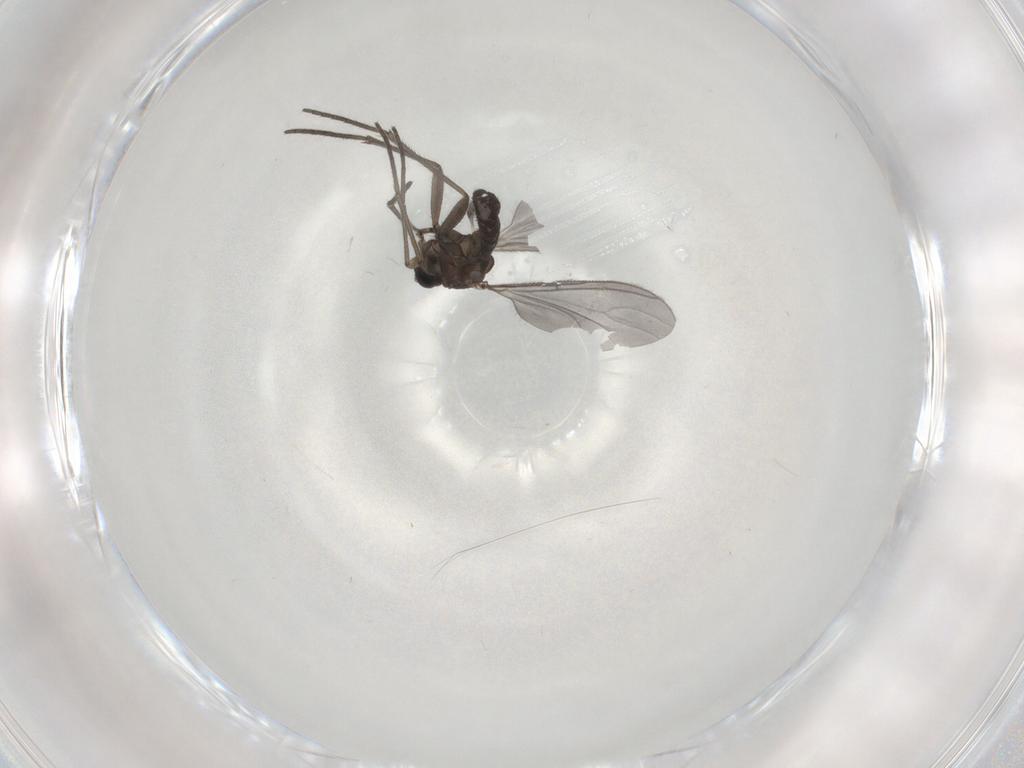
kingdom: Animalia
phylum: Arthropoda
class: Insecta
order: Diptera
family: Sciaridae
